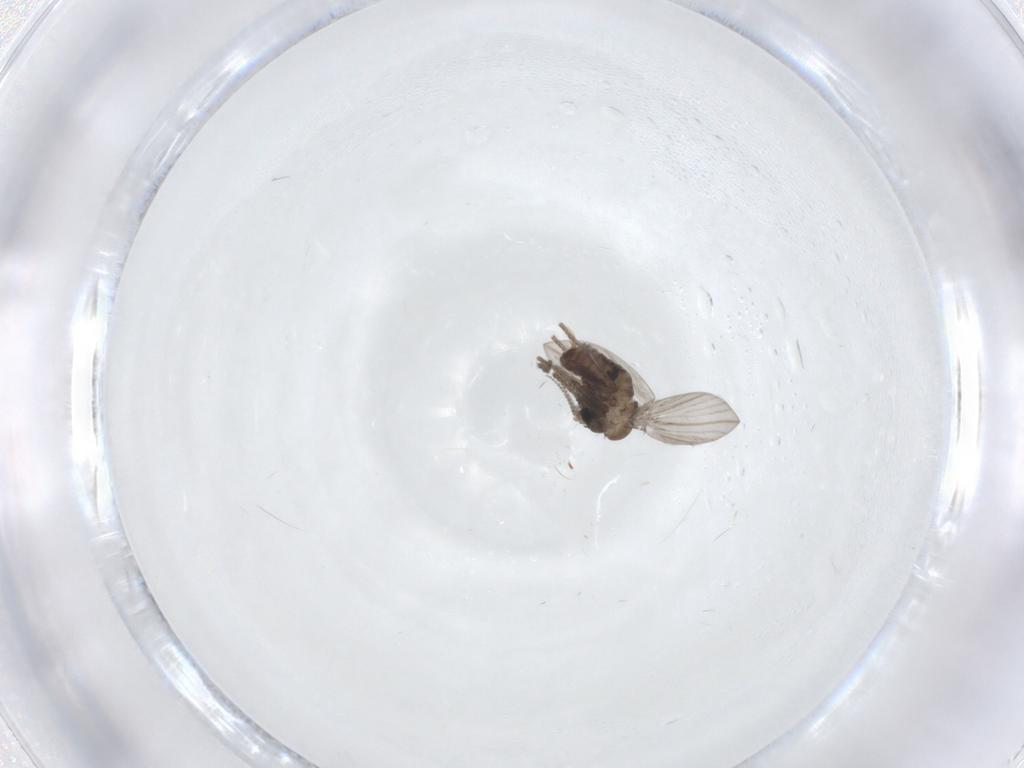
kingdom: Animalia
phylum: Arthropoda
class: Insecta
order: Diptera
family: Psychodidae
